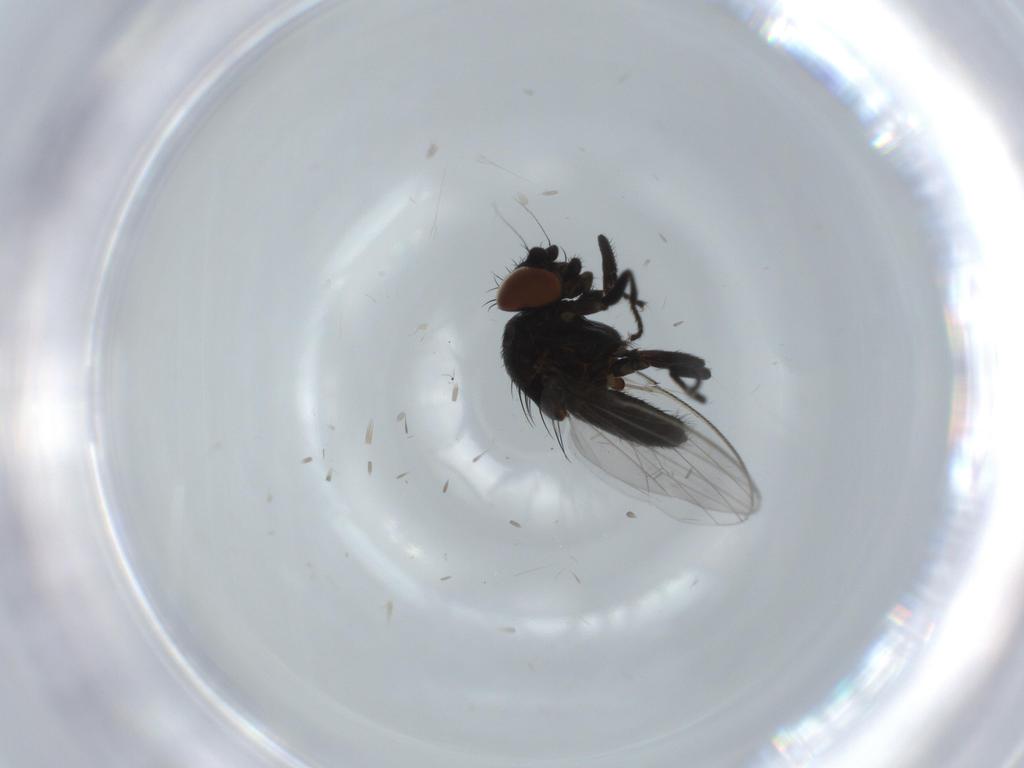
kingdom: Animalia
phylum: Arthropoda
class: Insecta
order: Diptera
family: Milichiidae
